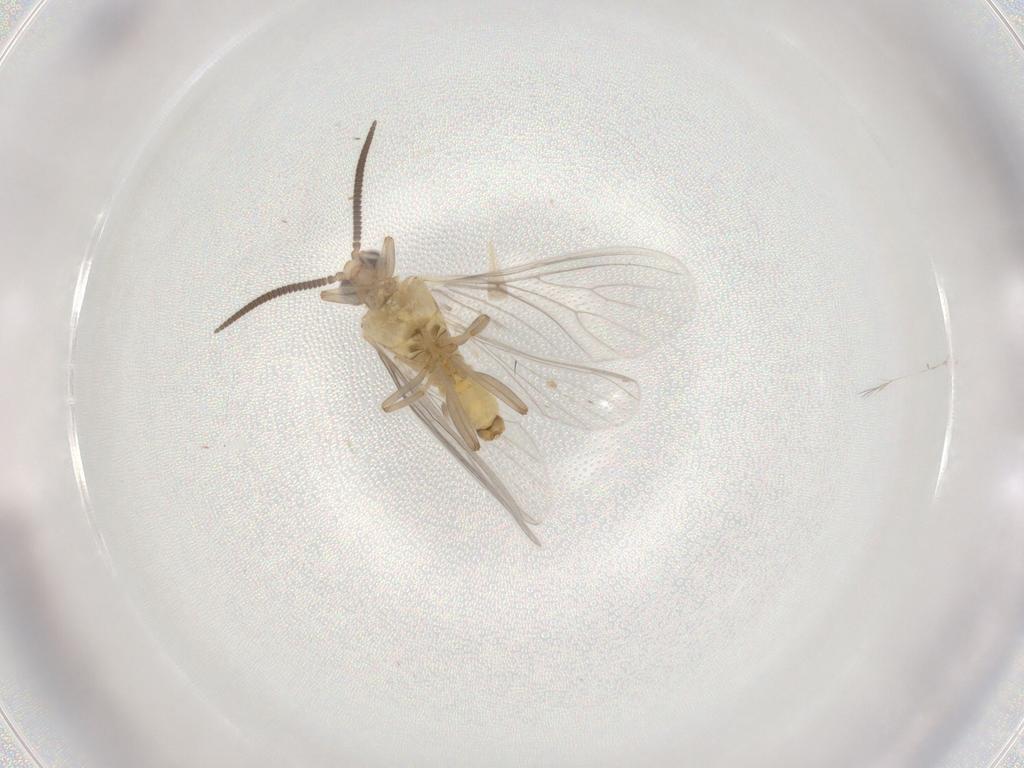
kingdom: Animalia
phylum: Arthropoda
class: Insecta
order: Neuroptera
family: Coniopterygidae
